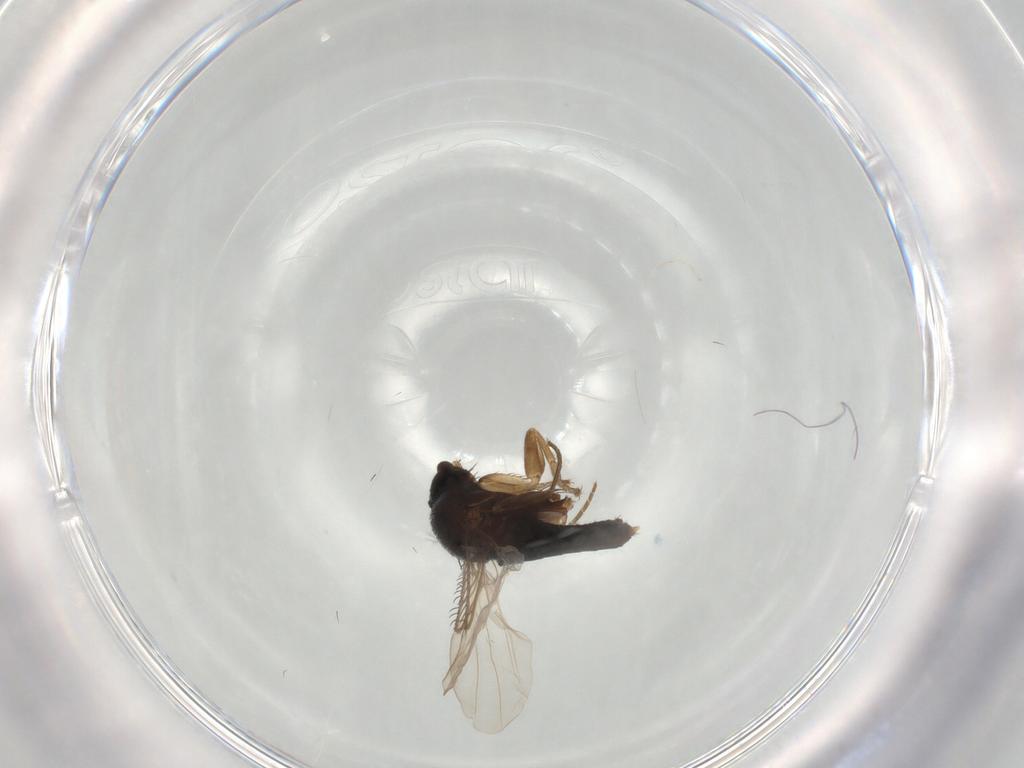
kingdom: Animalia
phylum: Arthropoda
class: Insecta
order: Diptera
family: Phoridae
